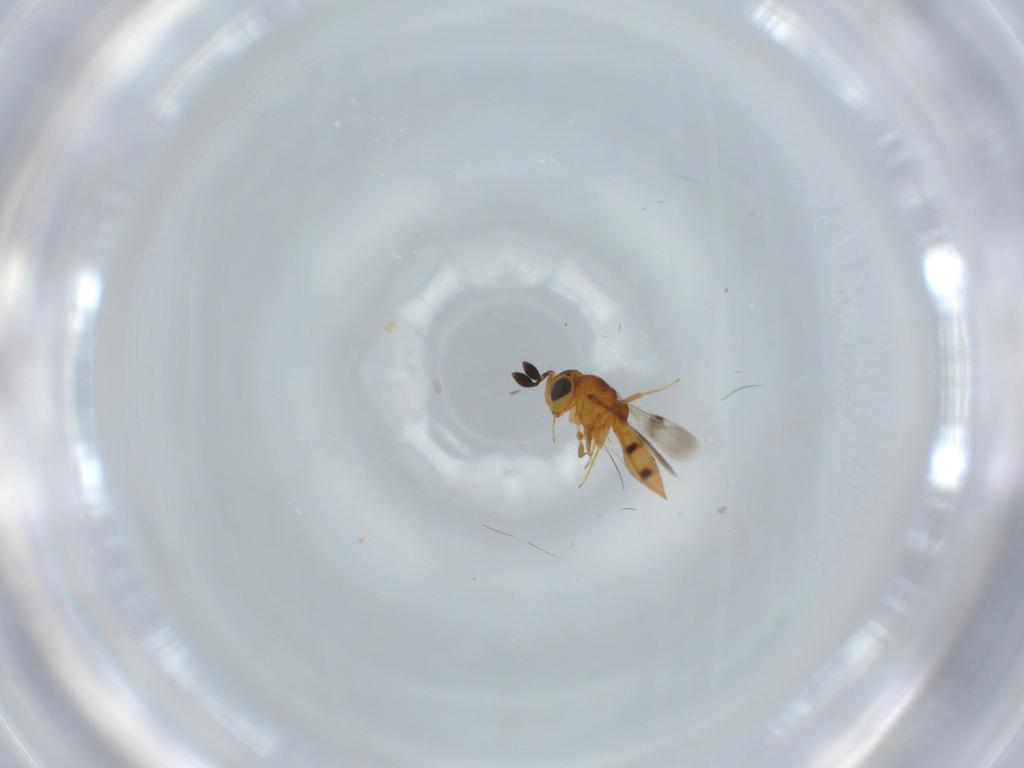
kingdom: Animalia
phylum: Arthropoda
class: Insecta
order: Hymenoptera
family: Scelionidae
